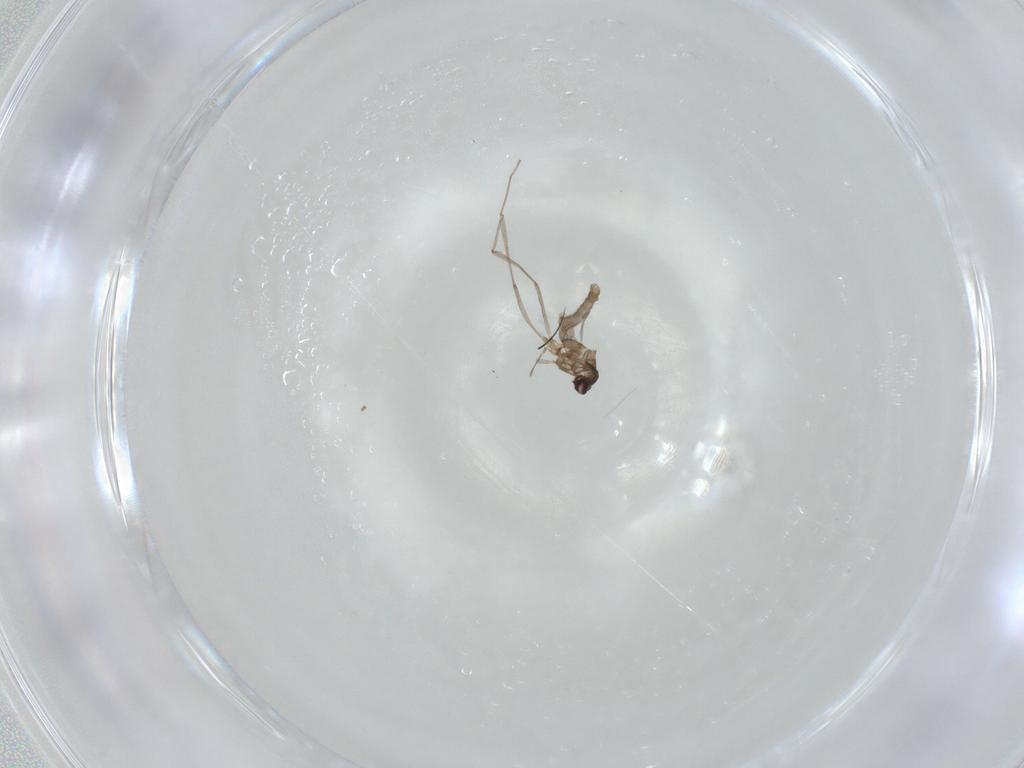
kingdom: Animalia
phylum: Arthropoda
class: Insecta
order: Diptera
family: Cecidomyiidae
